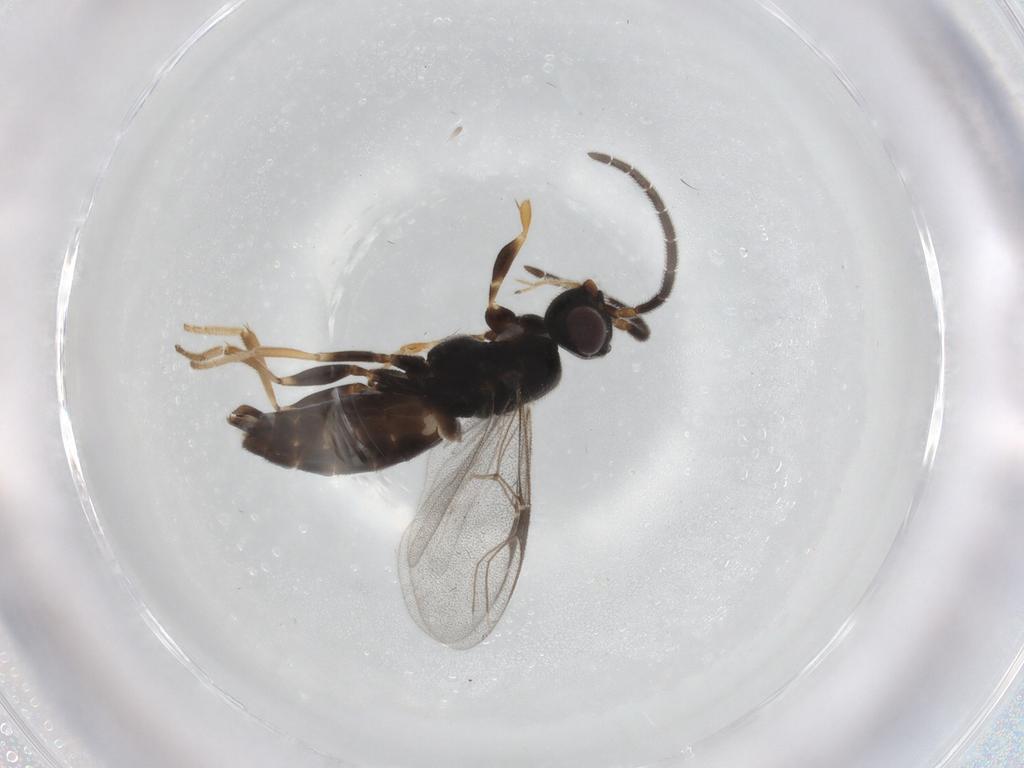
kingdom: Animalia
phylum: Arthropoda
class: Insecta
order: Hymenoptera
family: Dryinidae
